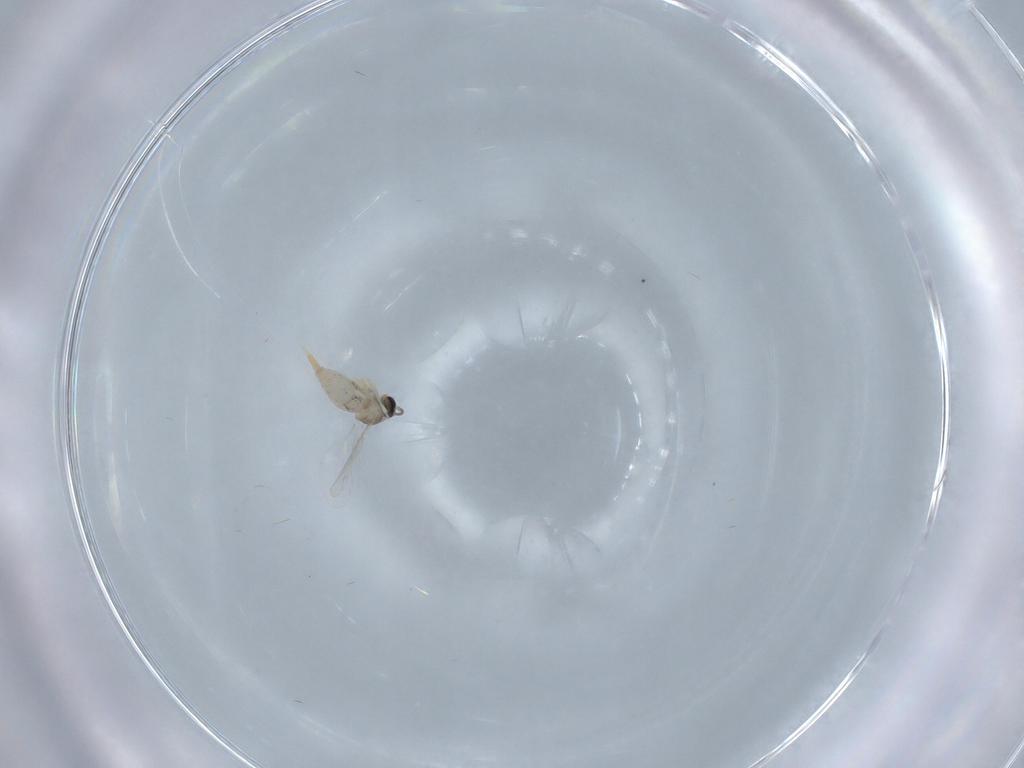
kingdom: Animalia
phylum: Arthropoda
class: Insecta
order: Diptera
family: Cecidomyiidae
